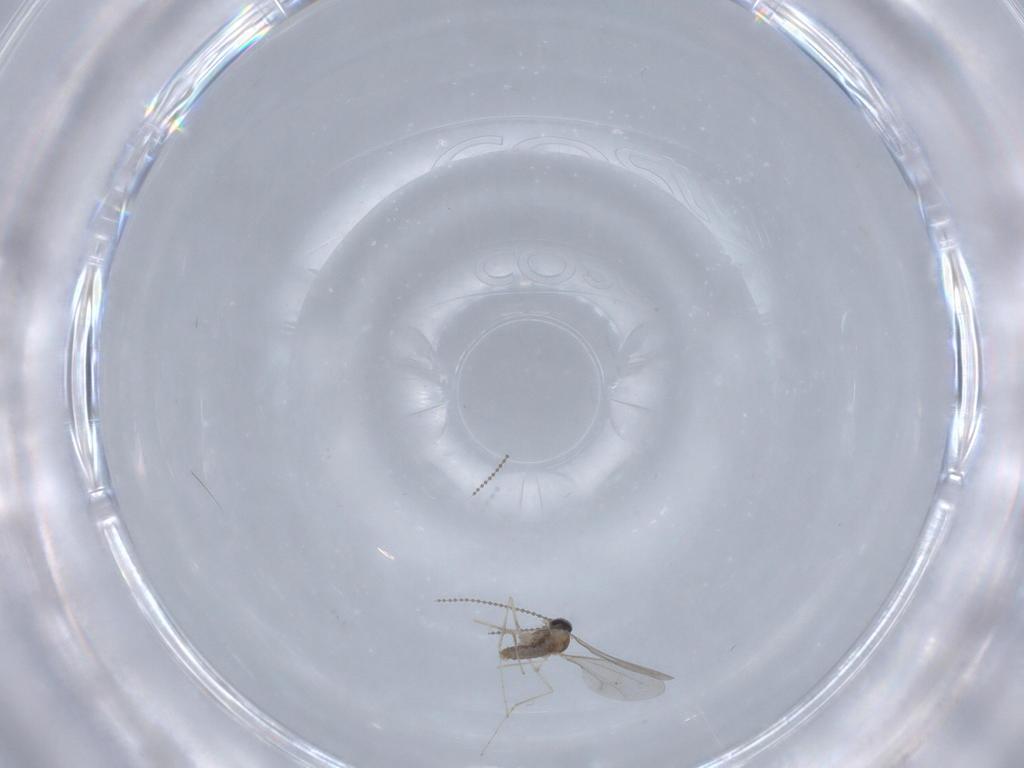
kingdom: Animalia
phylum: Arthropoda
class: Insecta
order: Diptera
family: Cecidomyiidae
